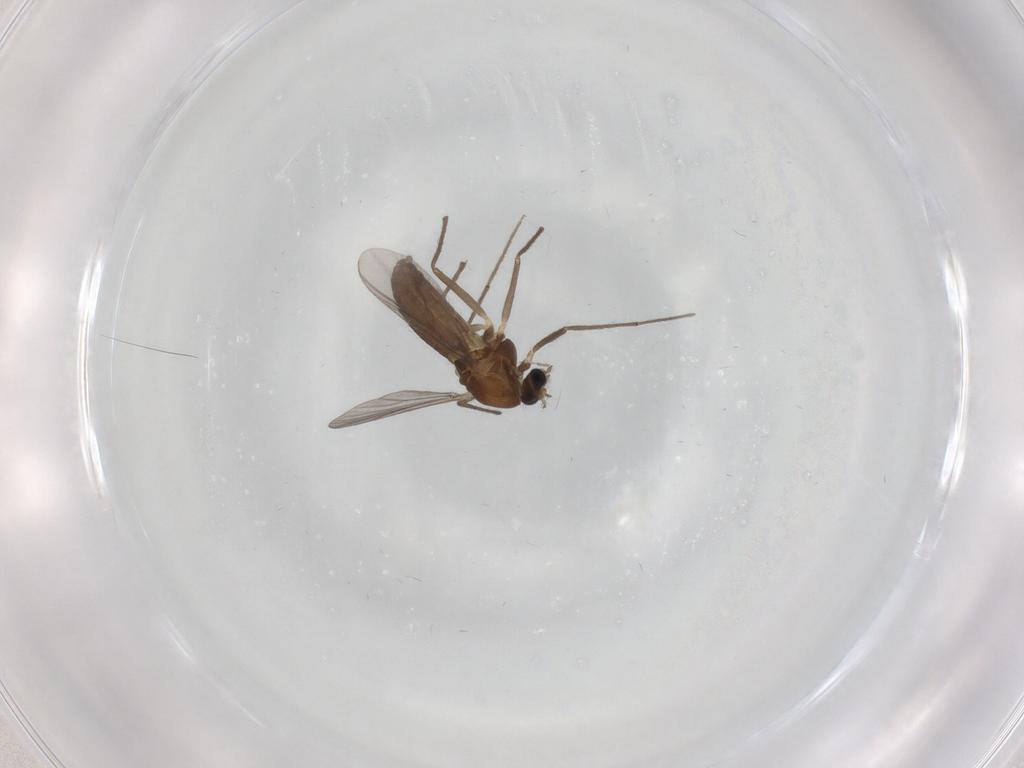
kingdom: Animalia
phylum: Arthropoda
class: Insecta
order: Diptera
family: Chironomidae
